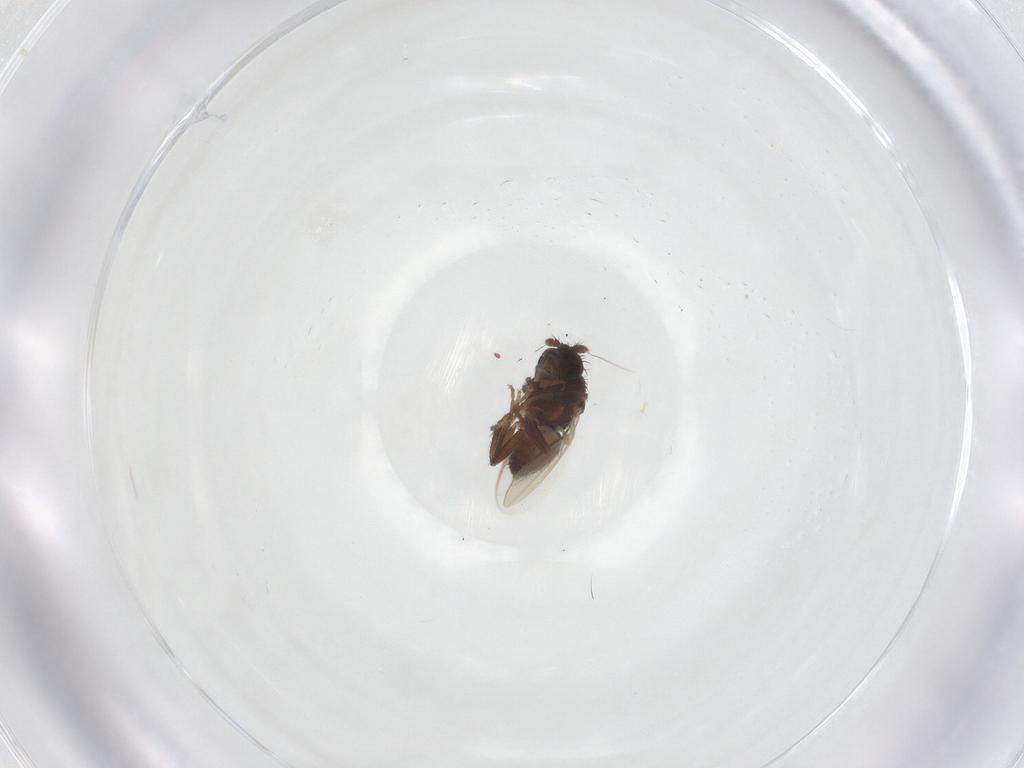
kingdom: Animalia
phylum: Arthropoda
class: Insecta
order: Diptera
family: Sphaeroceridae
